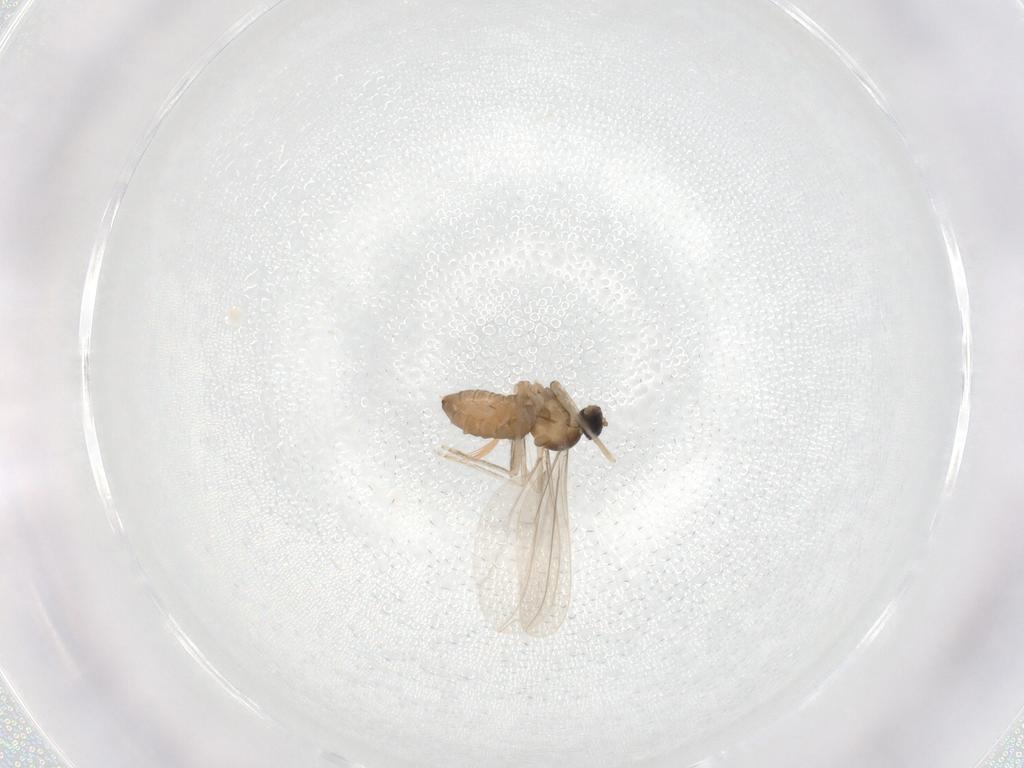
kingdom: Animalia
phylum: Arthropoda
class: Insecta
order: Diptera
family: Cecidomyiidae
